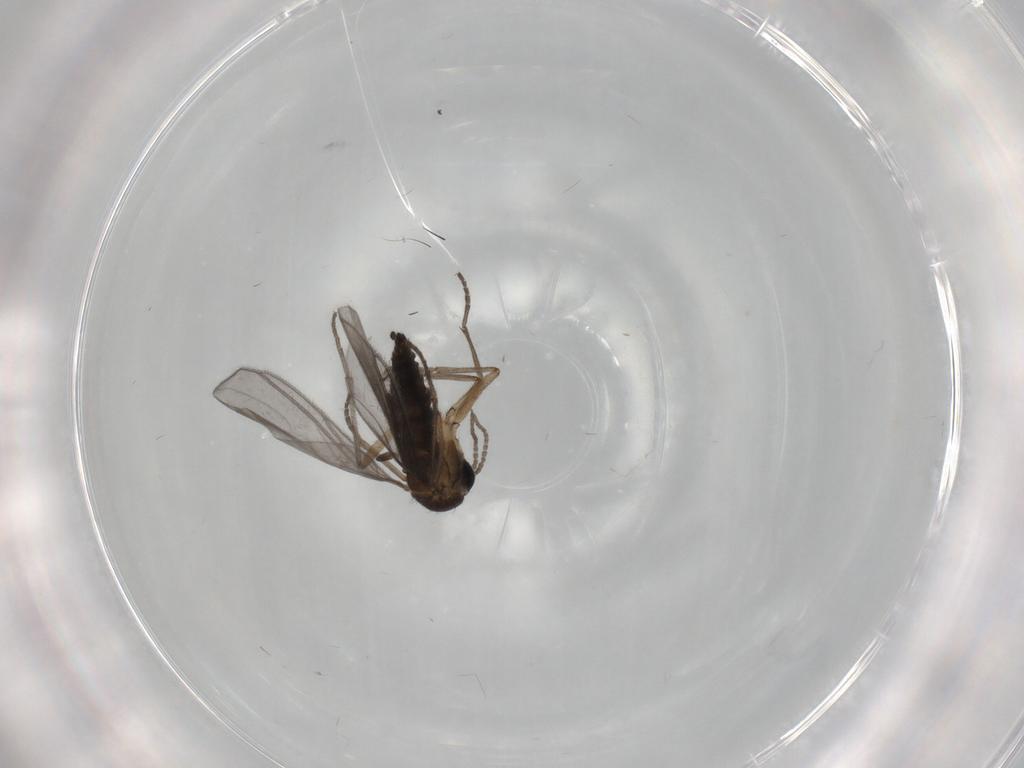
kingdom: Animalia
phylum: Arthropoda
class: Insecta
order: Diptera
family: Sciaridae
